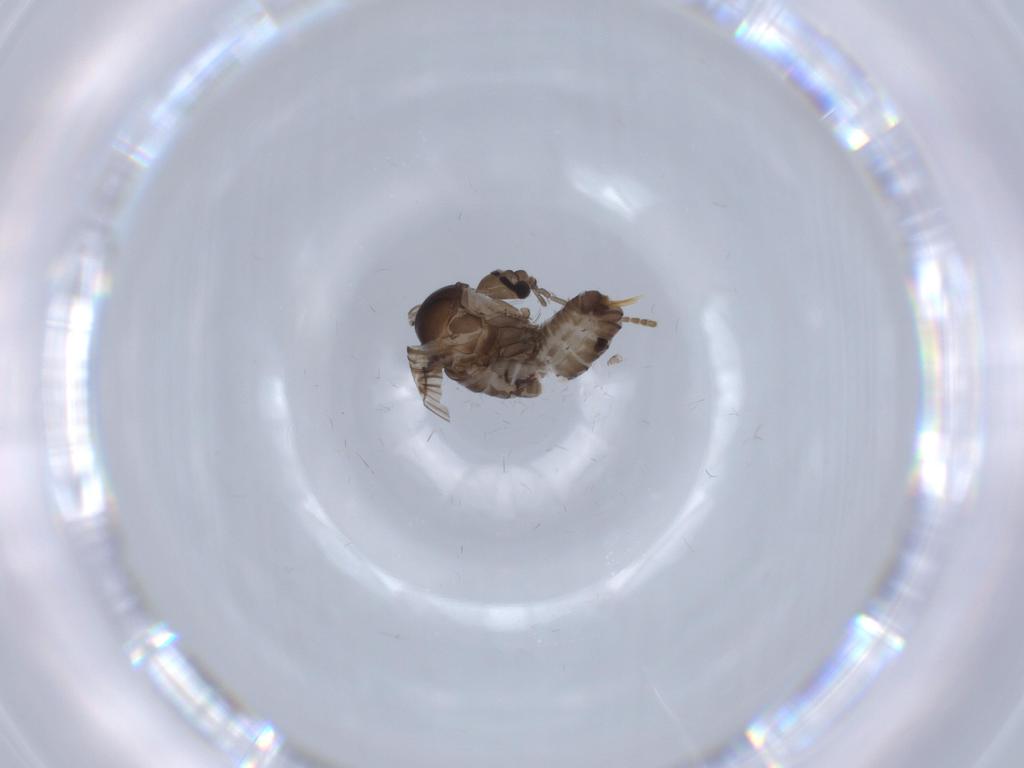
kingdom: Animalia
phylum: Arthropoda
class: Insecta
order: Diptera
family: Psychodidae
